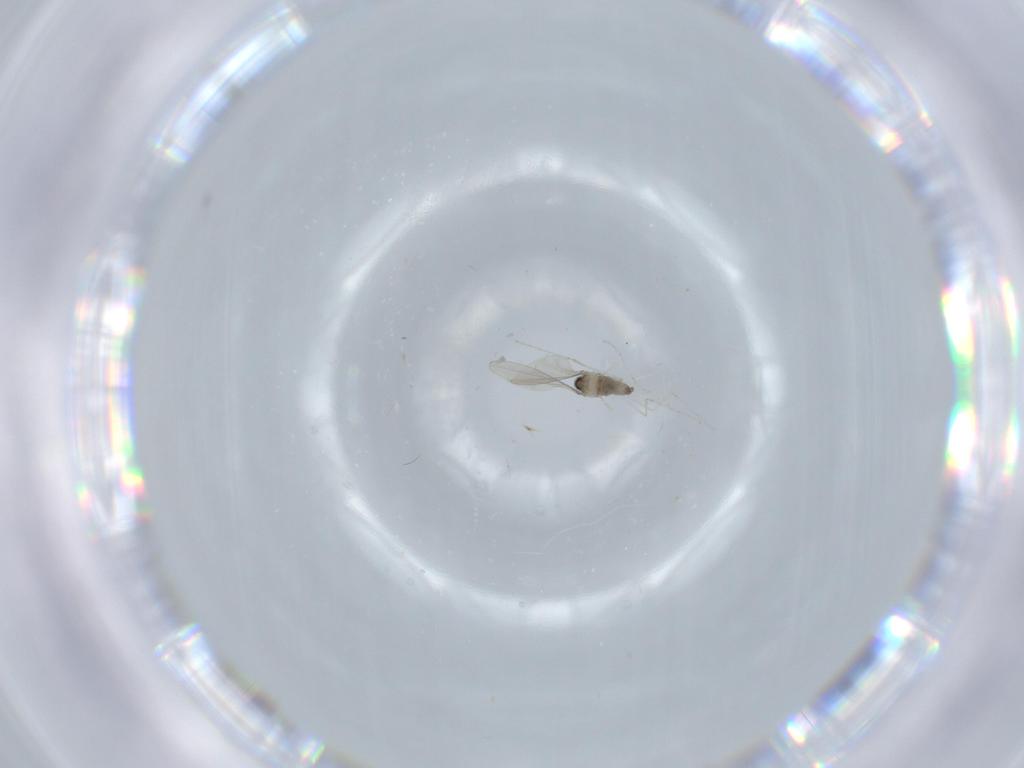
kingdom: Animalia
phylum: Arthropoda
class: Insecta
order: Diptera
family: Cecidomyiidae
